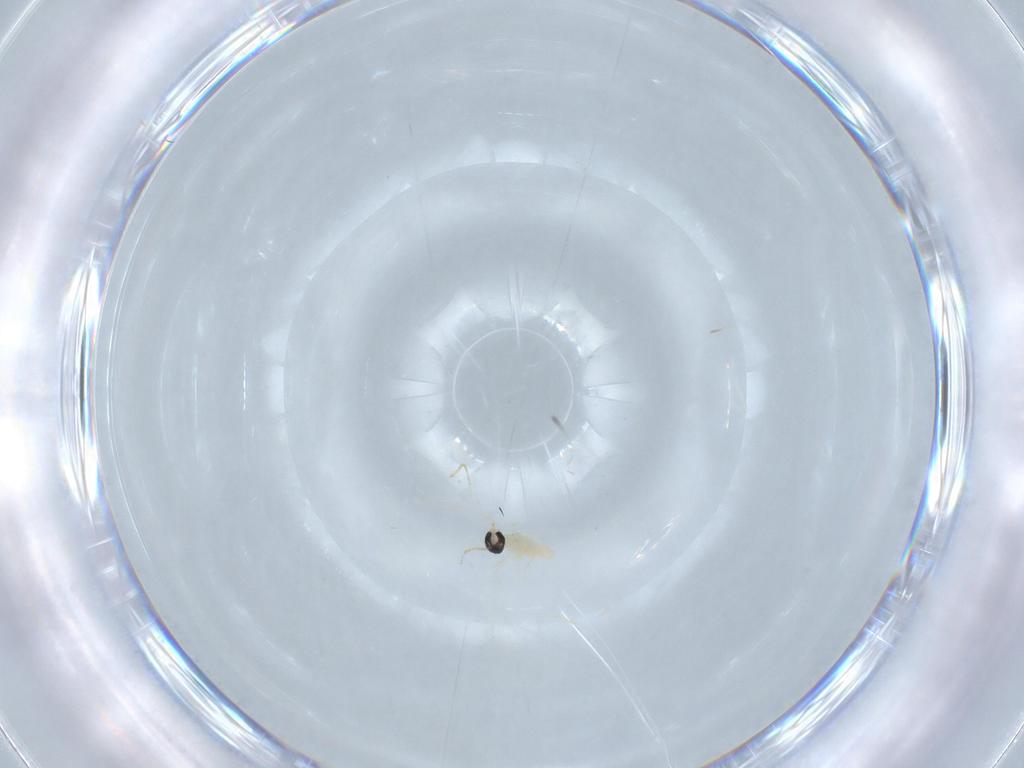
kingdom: Animalia
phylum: Arthropoda
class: Insecta
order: Diptera
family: Cecidomyiidae
